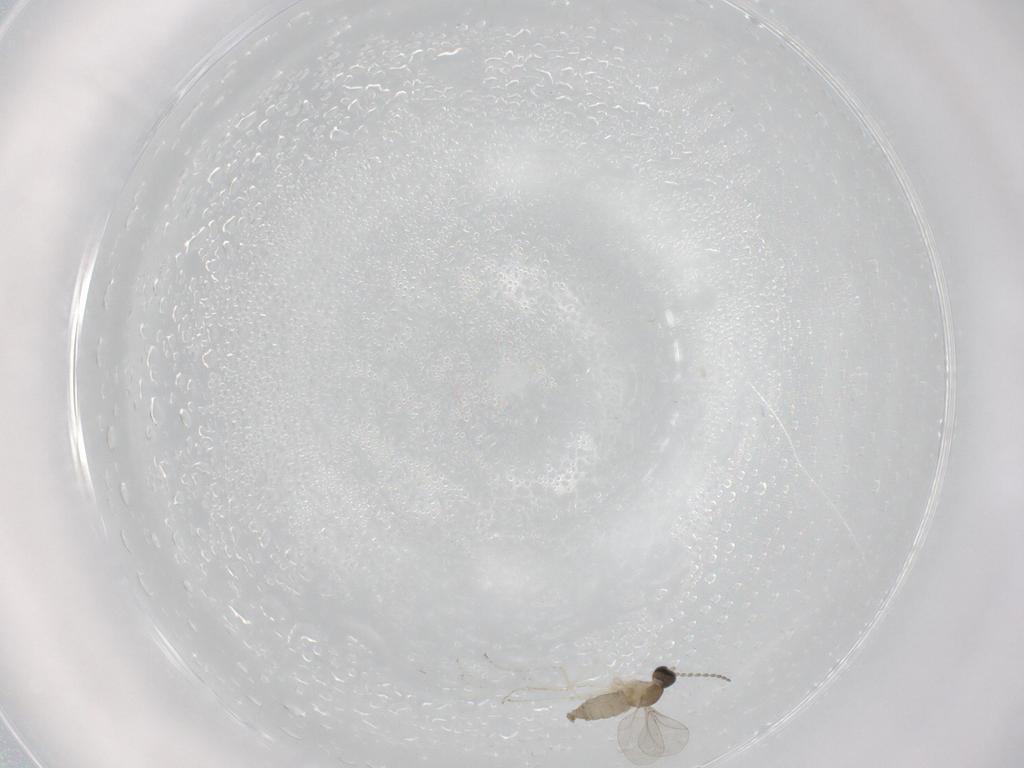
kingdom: Animalia
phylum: Arthropoda
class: Insecta
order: Diptera
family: Cecidomyiidae
